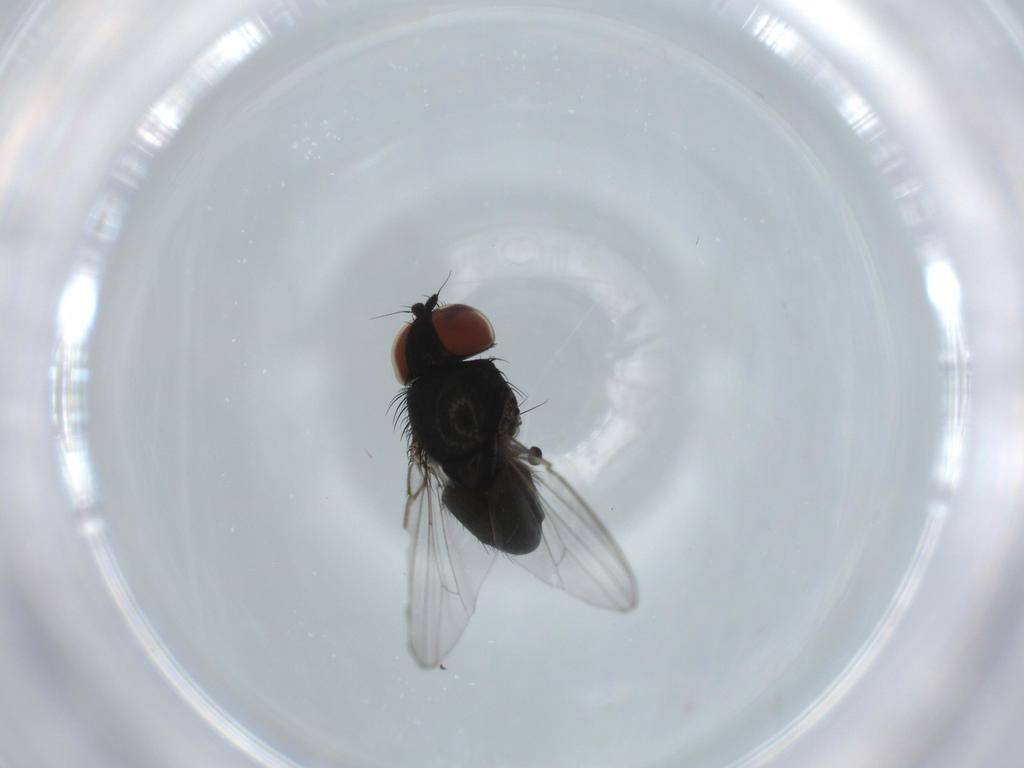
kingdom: Animalia
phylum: Arthropoda
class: Insecta
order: Diptera
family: Milichiidae
